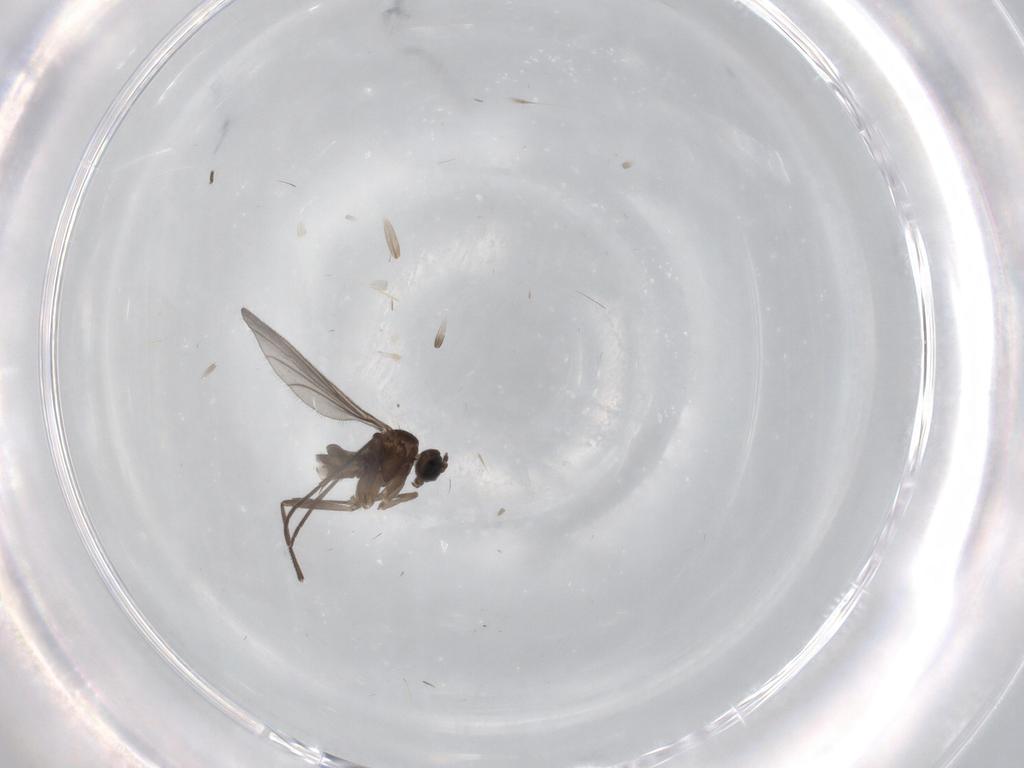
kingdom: Animalia
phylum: Arthropoda
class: Insecta
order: Diptera
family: Sciaridae
